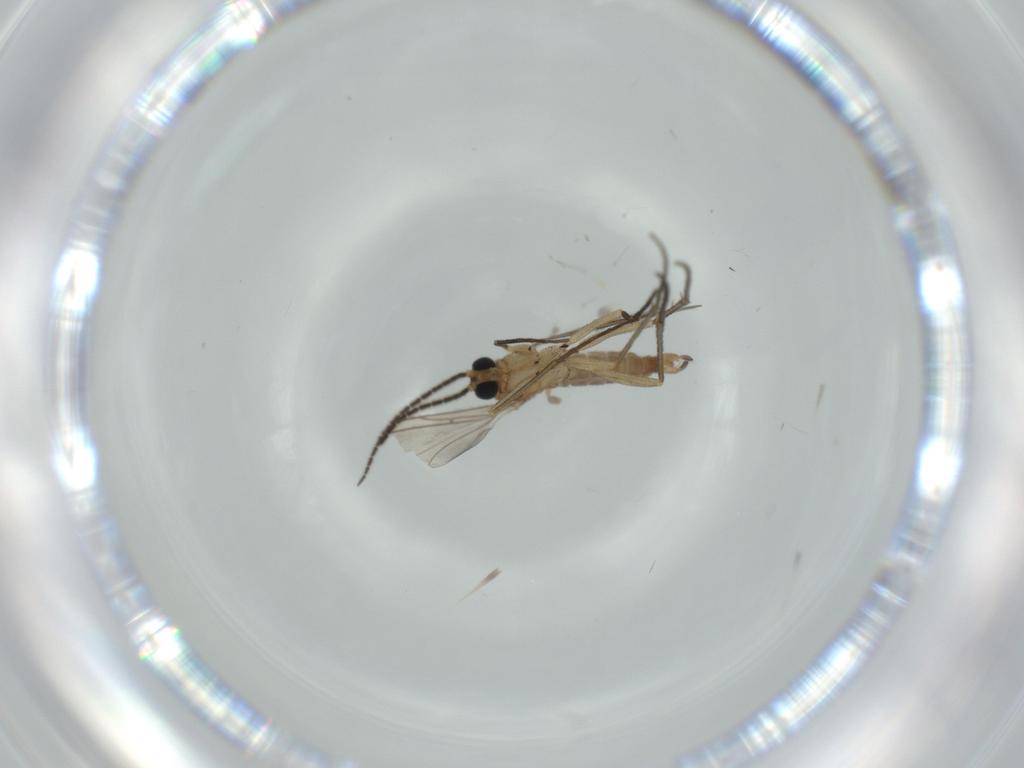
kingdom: Animalia
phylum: Arthropoda
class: Insecta
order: Diptera
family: Sciaridae
